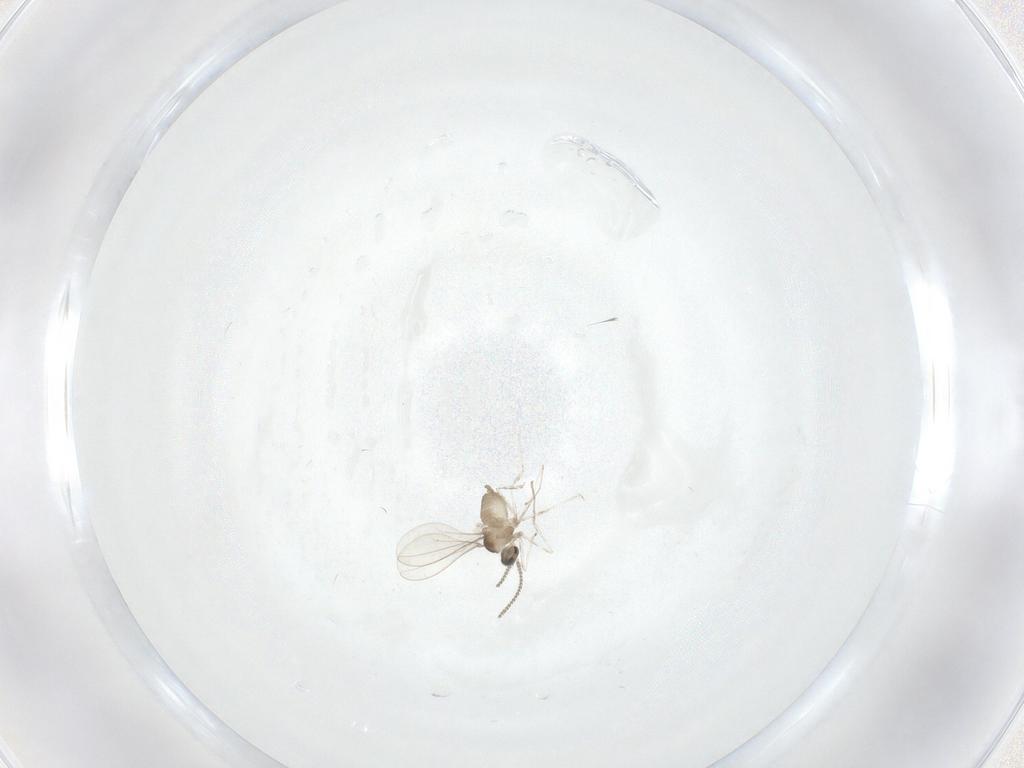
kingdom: Animalia
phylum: Arthropoda
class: Insecta
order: Diptera
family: Cecidomyiidae
